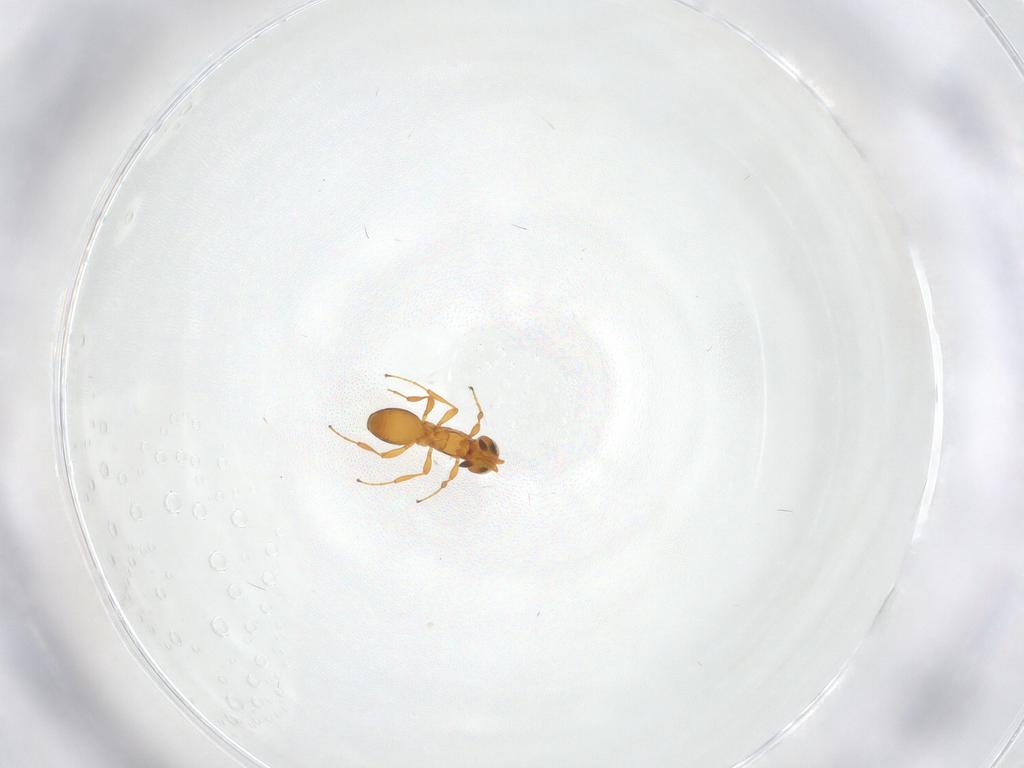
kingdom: Animalia
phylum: Arthropoda
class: Insecta
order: Hymenoptera
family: Platygastridae
